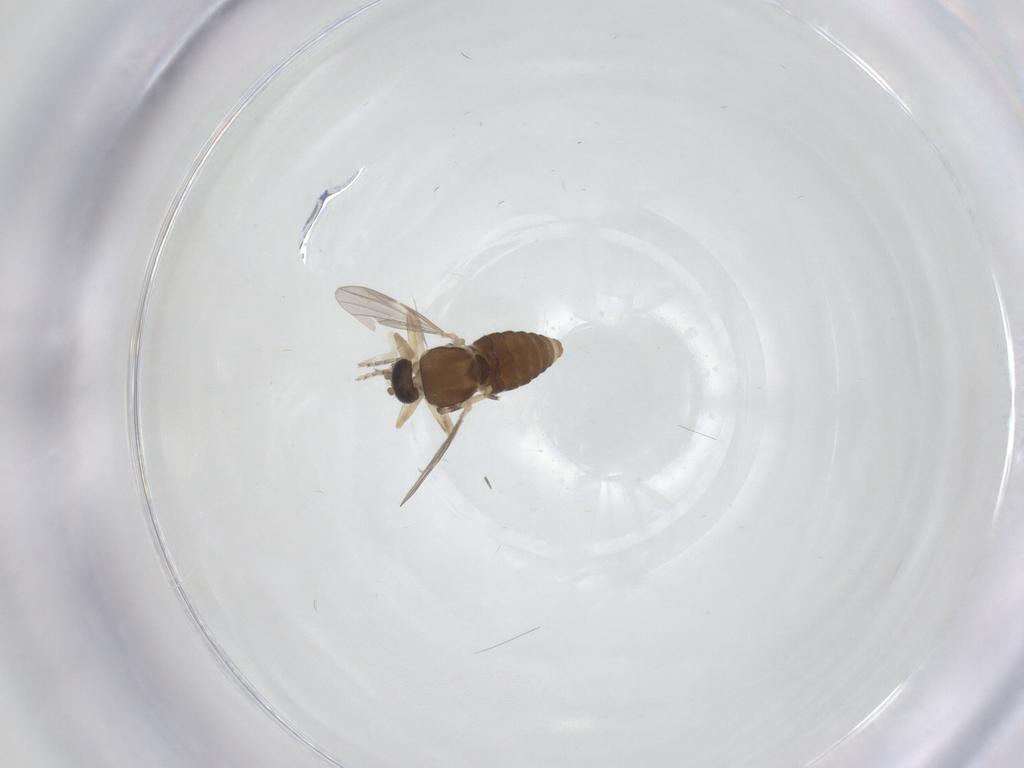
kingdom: Animalia
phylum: Arthropoda
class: Insecta
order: Diptera
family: Ceratopogonidae
